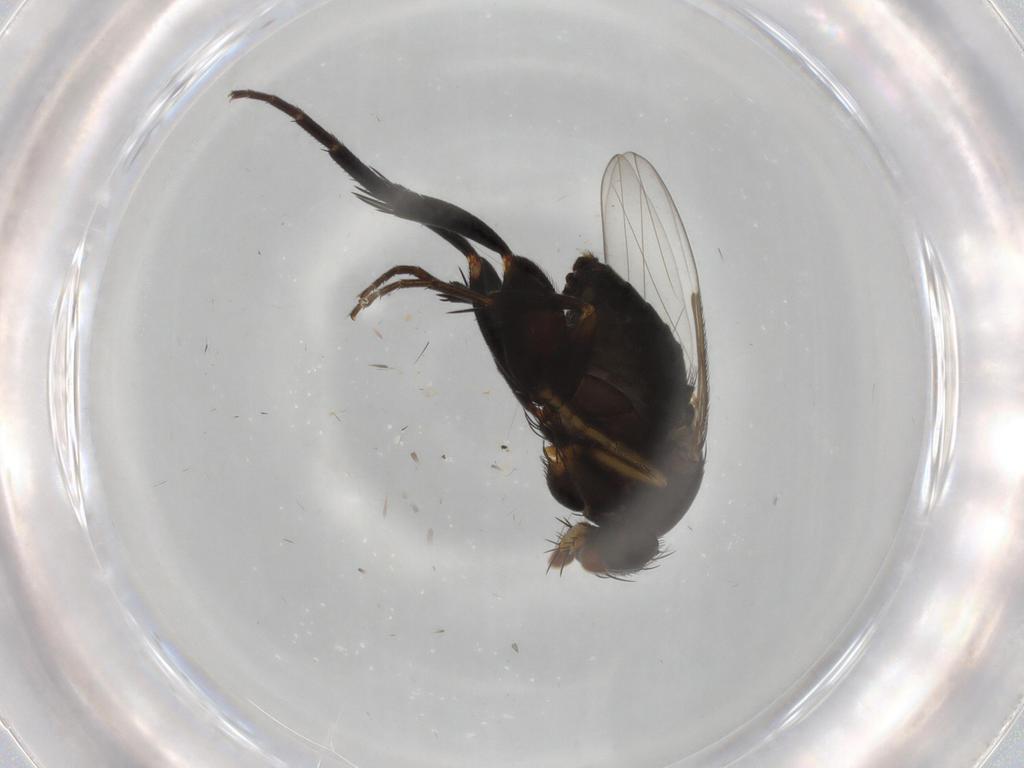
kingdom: Animalia
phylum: Arthropoda
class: Insecta
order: Diptera
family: Phoridae
